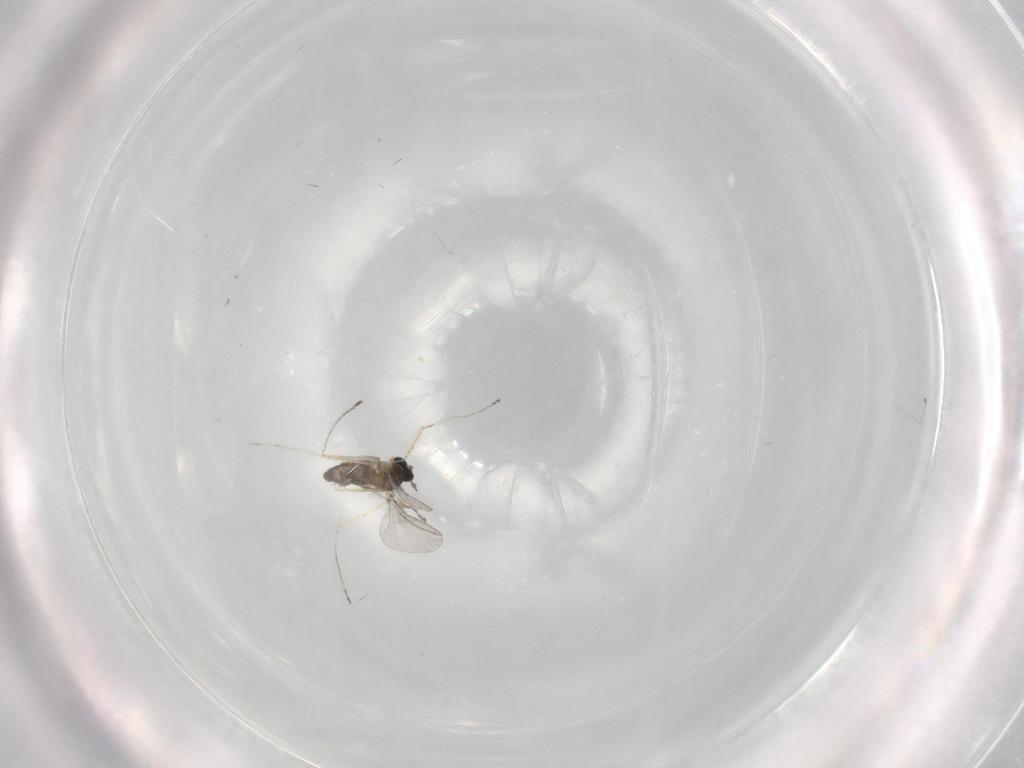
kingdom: Animalia
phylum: Arthropoda
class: Insecta
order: Diptera
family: Cecidomyiidae
